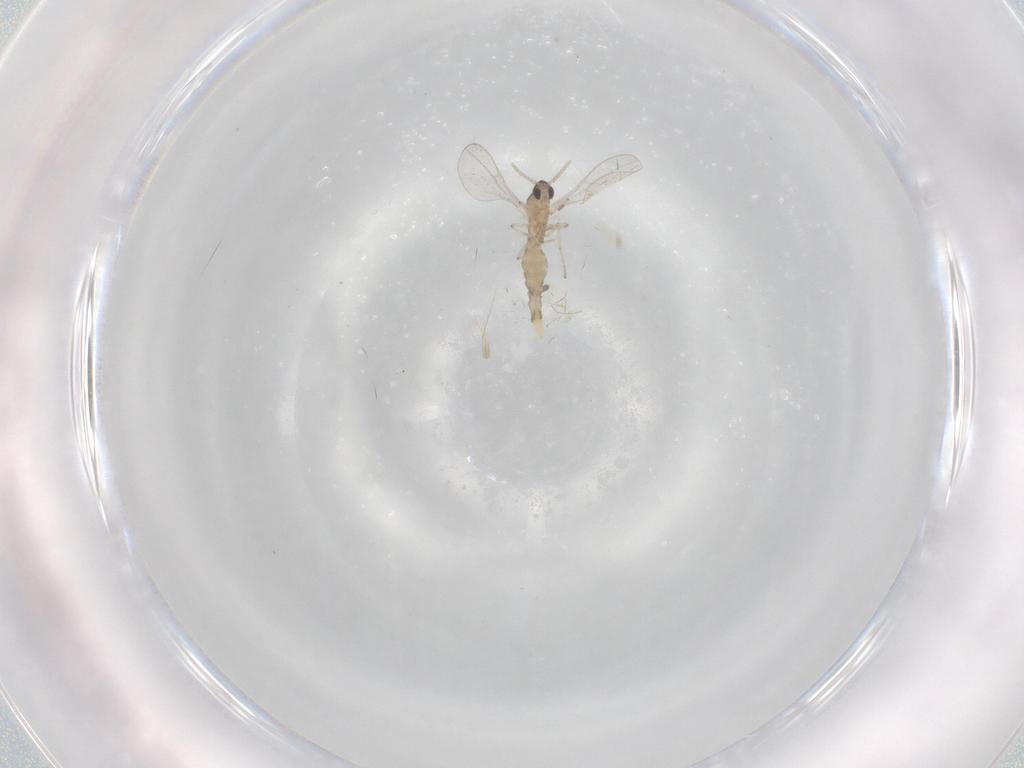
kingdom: Animalia
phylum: Arthropoda
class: Insecta
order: Diptera
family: Cecidomyiidae
